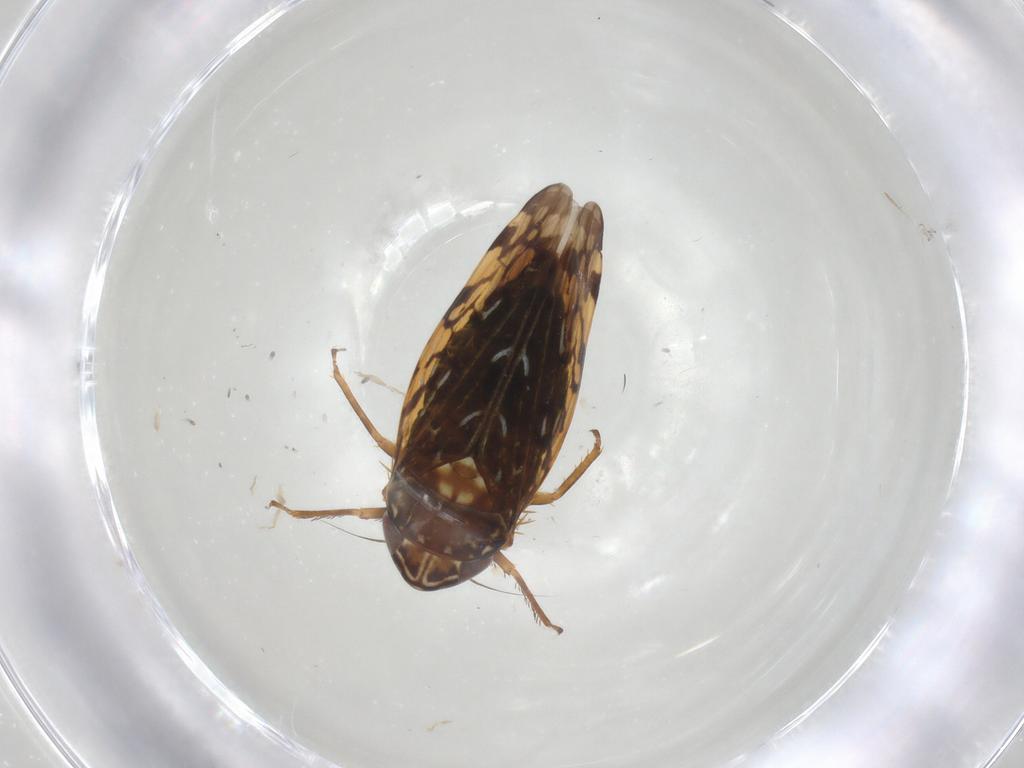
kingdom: Animalia
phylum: Arthropoda
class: Insecta
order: Hemiptera
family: Cicadellidae
